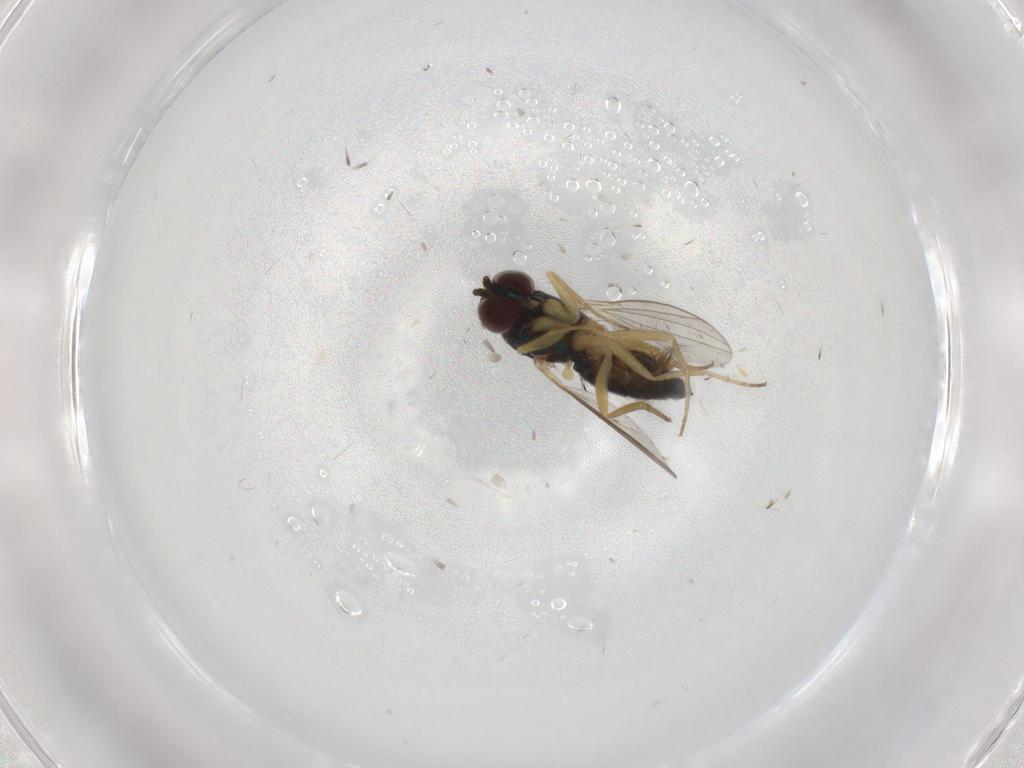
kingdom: Animalia
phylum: Arthropoda
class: Insecta
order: Diptera
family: Dolichopodidae
